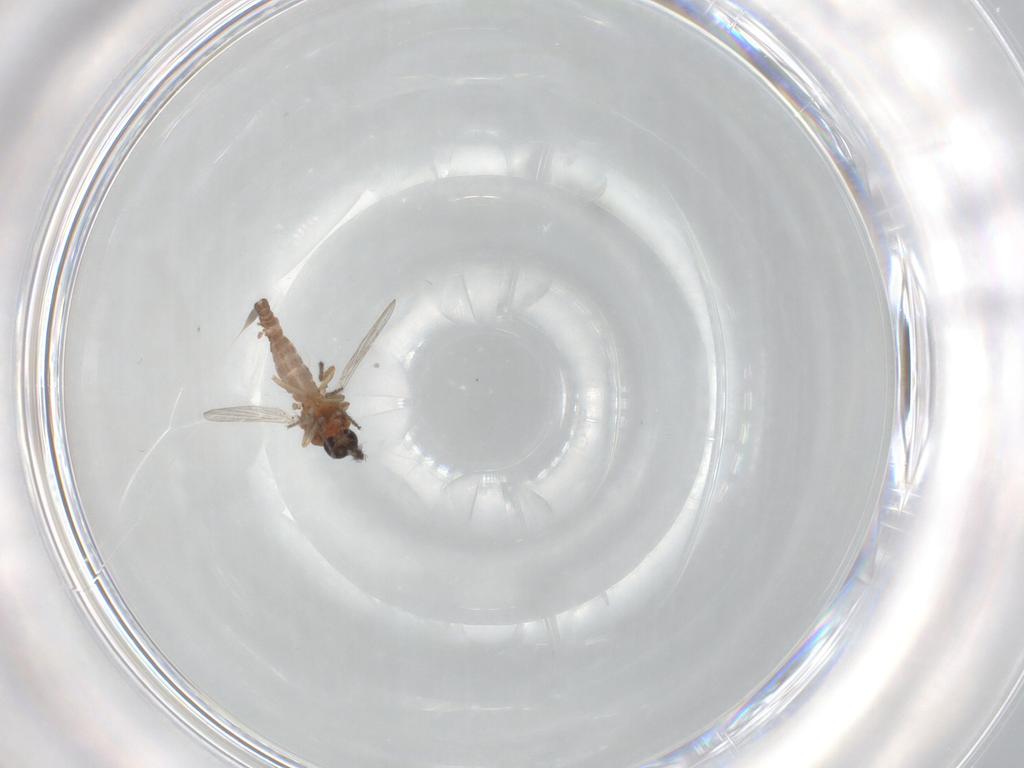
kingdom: Animalia
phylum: Arthropoda
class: Insecta
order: Diptera
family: Ceratopogonidae
